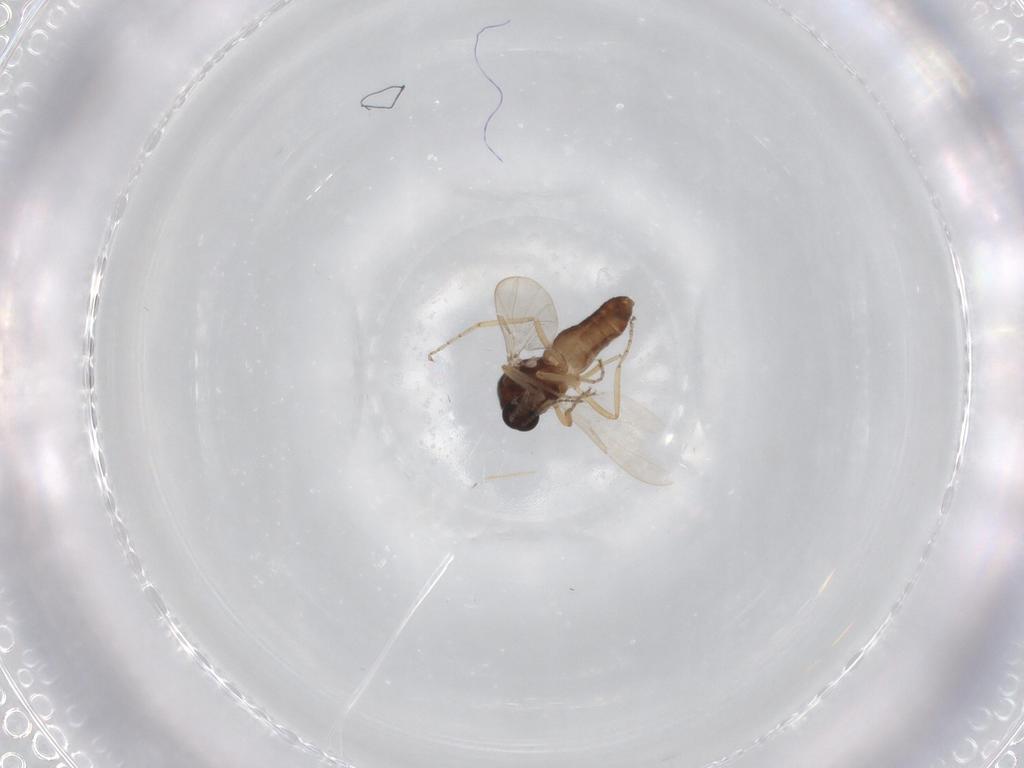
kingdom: Animalia
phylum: Arthropoda
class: Insecta
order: Diptera
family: Ceratopogonidae
